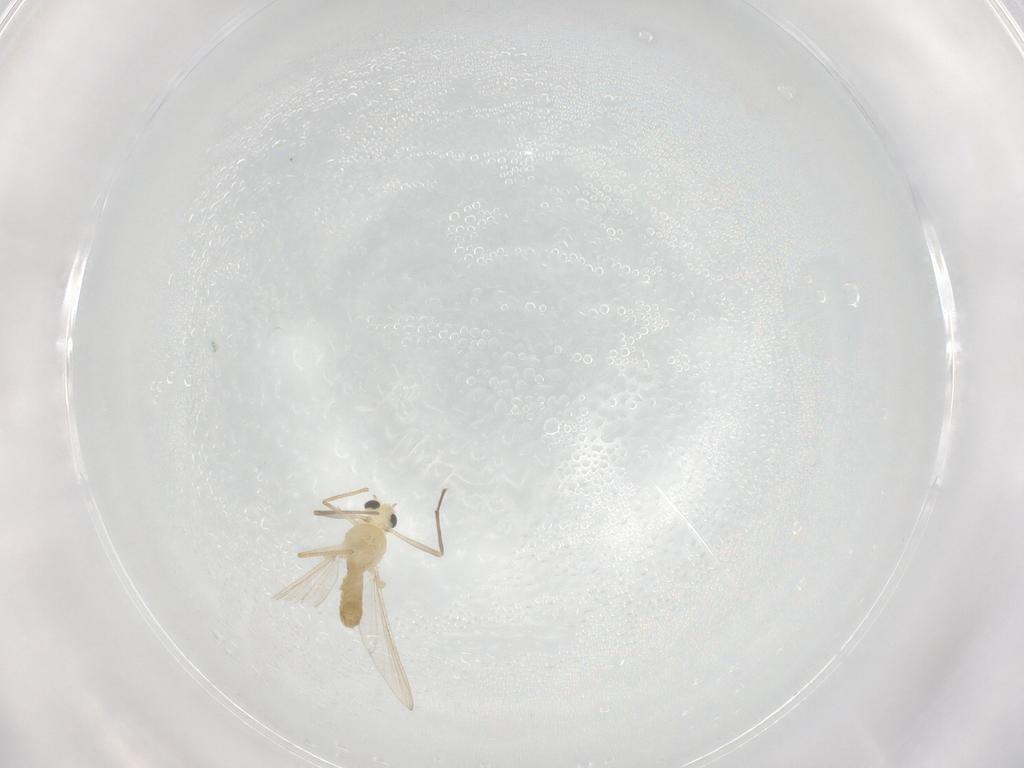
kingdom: Animalia
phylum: Arthropoda
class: Insecta
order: Diptera
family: Chironomidae
